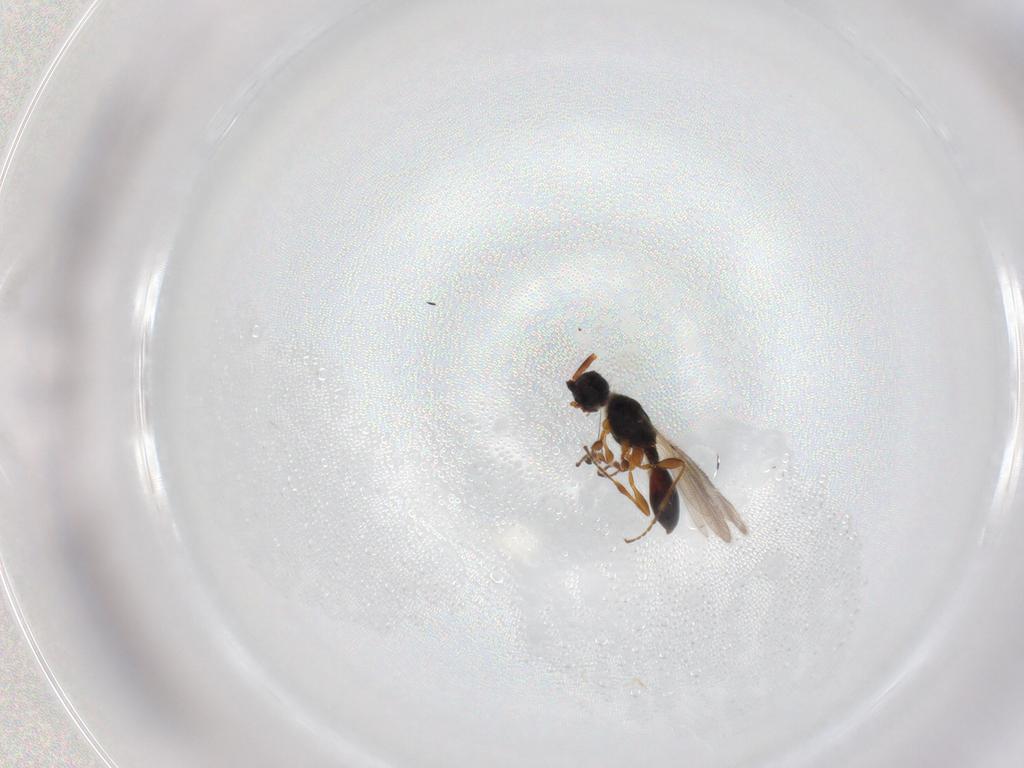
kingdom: Animalia
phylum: Arthropoda
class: Insecta
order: Hymenoptera
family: Diapriidae
